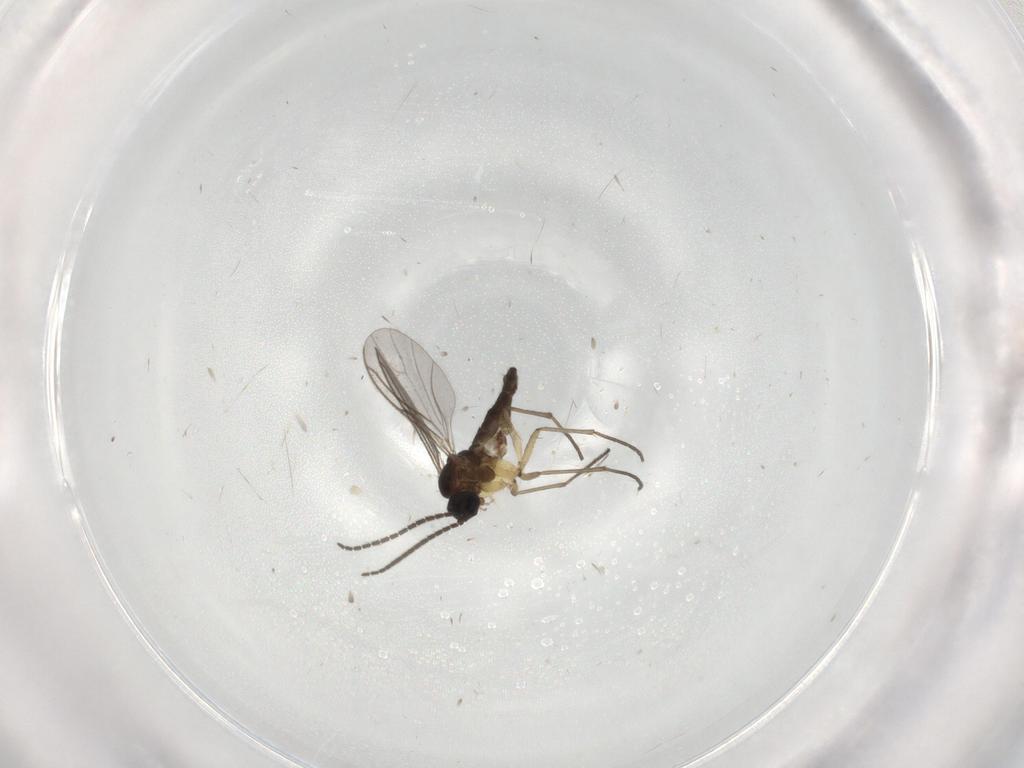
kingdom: Animalia
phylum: Arthropoda
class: Insecta
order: Diptera
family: Sciaridae
